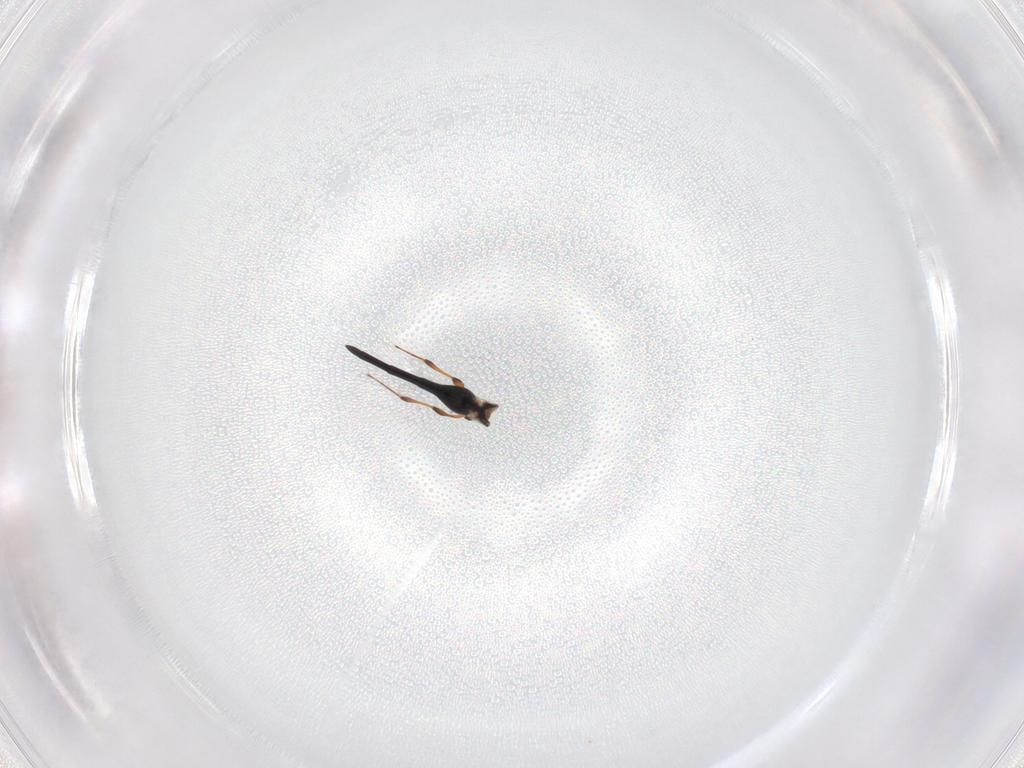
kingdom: Animalia
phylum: Arthropoda
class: Insecta
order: Hymenoptera
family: Platygastridae
